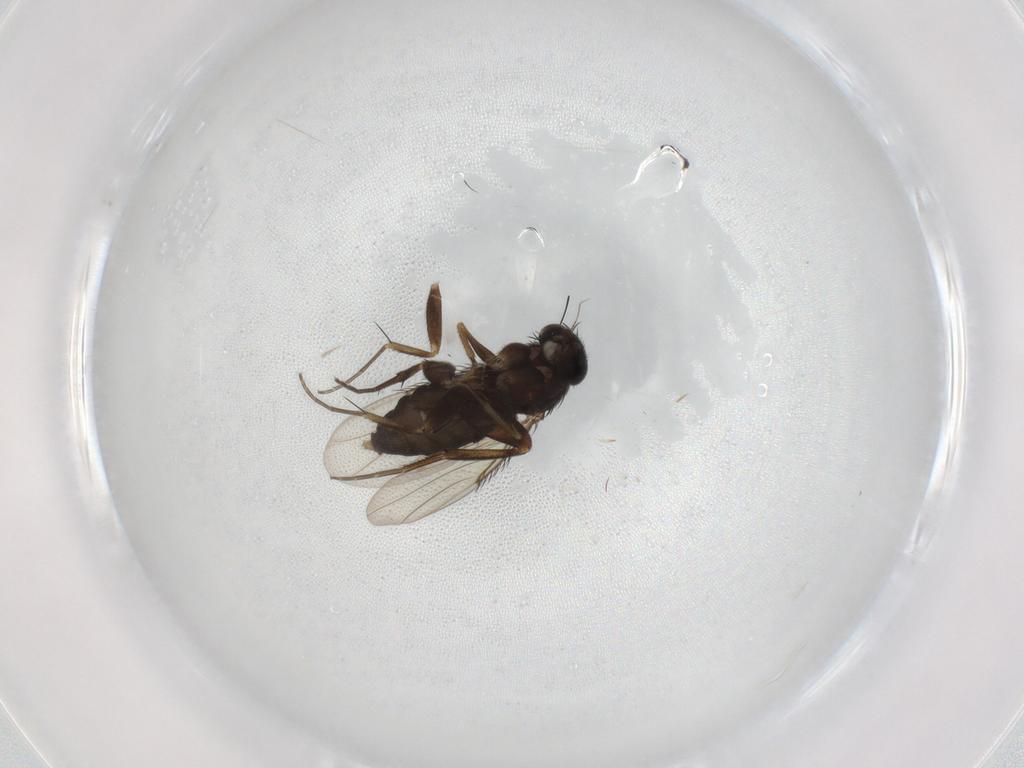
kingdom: Animalia
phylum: Arthropoda
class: Insecta
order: Diptera
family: Phoridae
